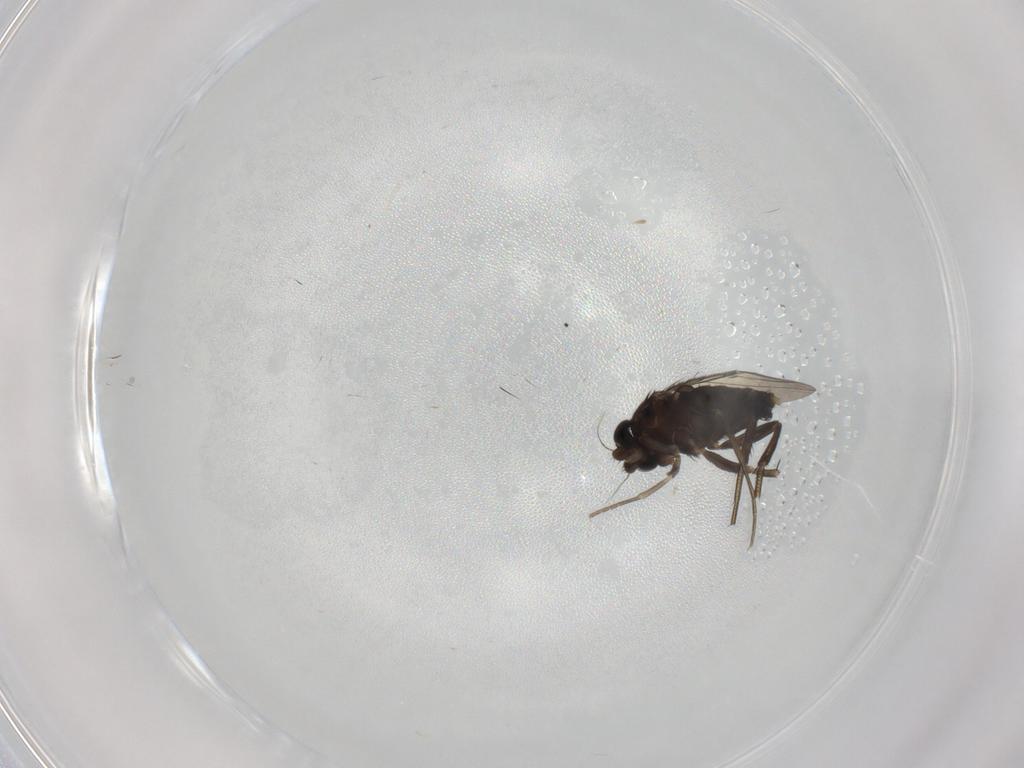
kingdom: Animalia
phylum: Arthropoda
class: Insecta
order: Diptera
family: Phoridae
